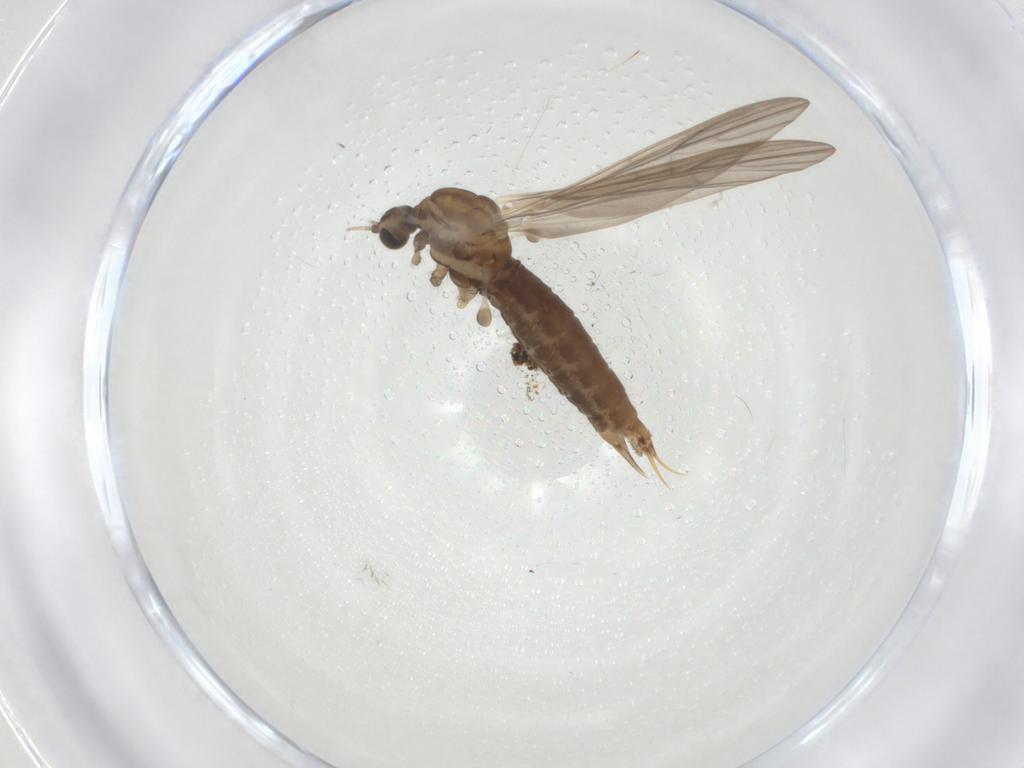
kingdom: Animalia
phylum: Arthropoda
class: Insecta
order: Diptera
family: Limoniidae
